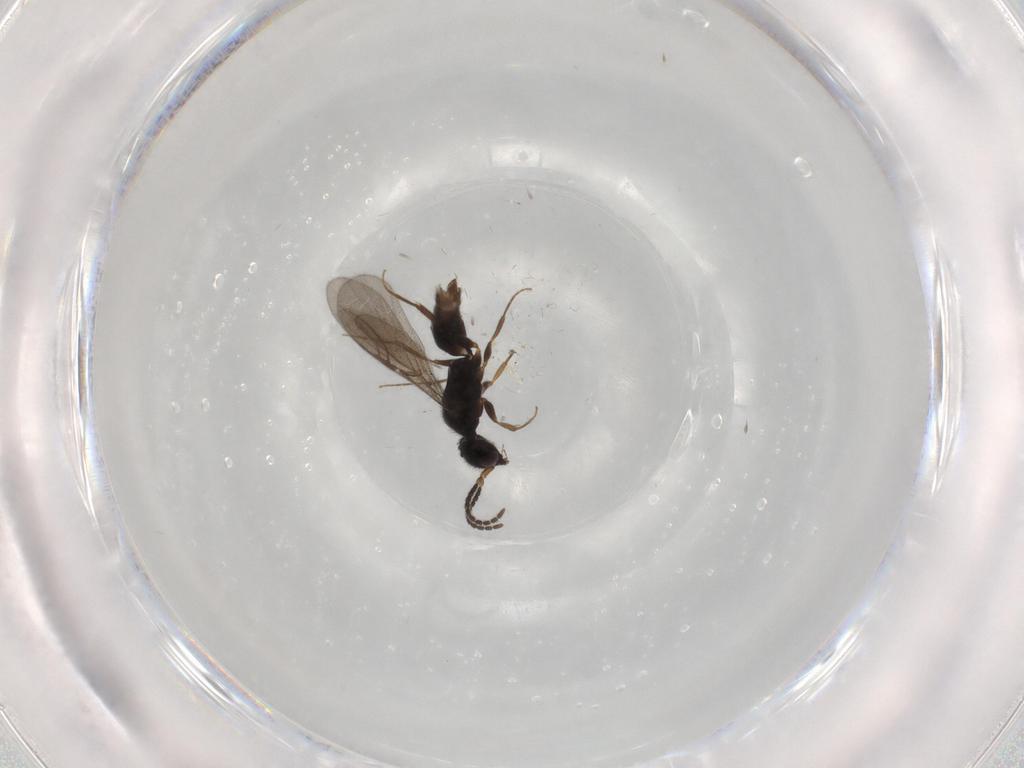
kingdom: Animalia
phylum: Arthropoda
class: Insecta
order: Hymenoptera
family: Bethylidae
